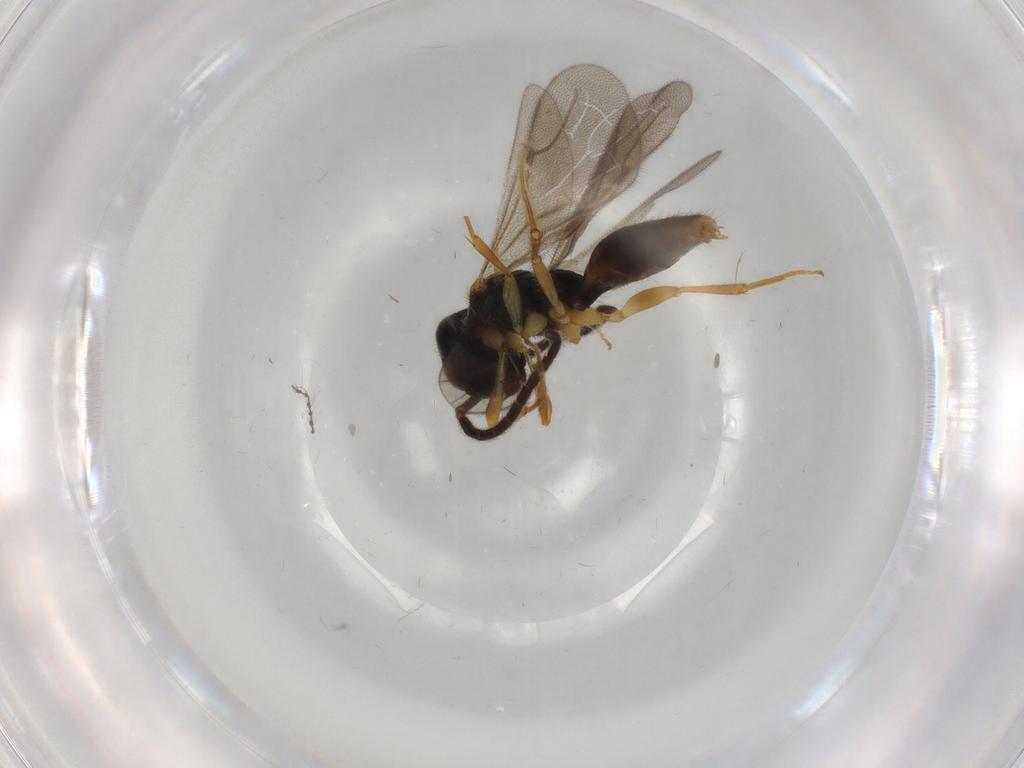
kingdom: Animalia
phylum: Arthropoda
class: Insecta
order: Hymenoptera
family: Bethylidae
